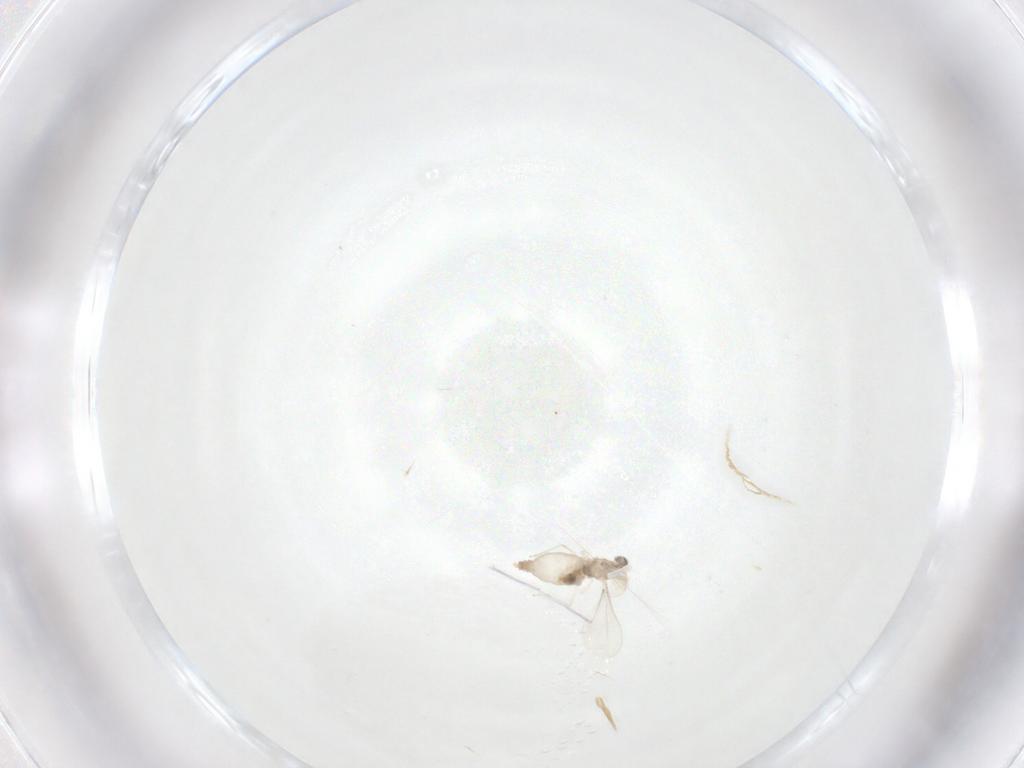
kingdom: Animalia
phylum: Arthropoda
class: Insecta
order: Diptera
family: Cecidomyiidae
